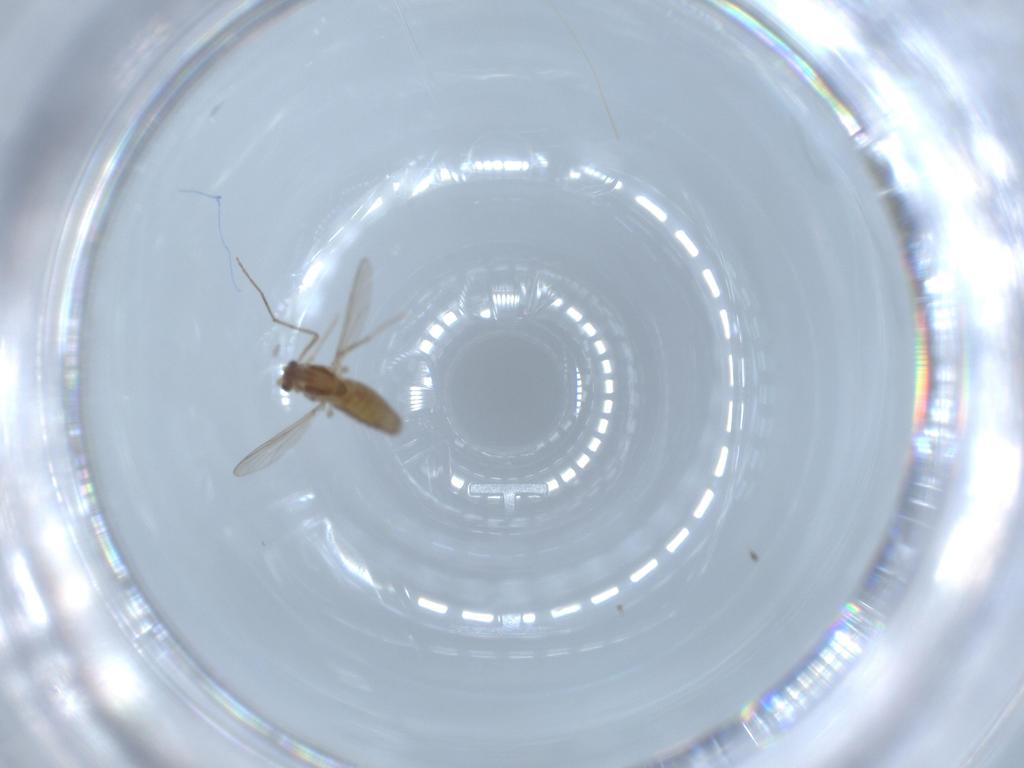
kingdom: Animalia
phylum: Arthropoda
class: Insecta
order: Diptera
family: Chironomidae
